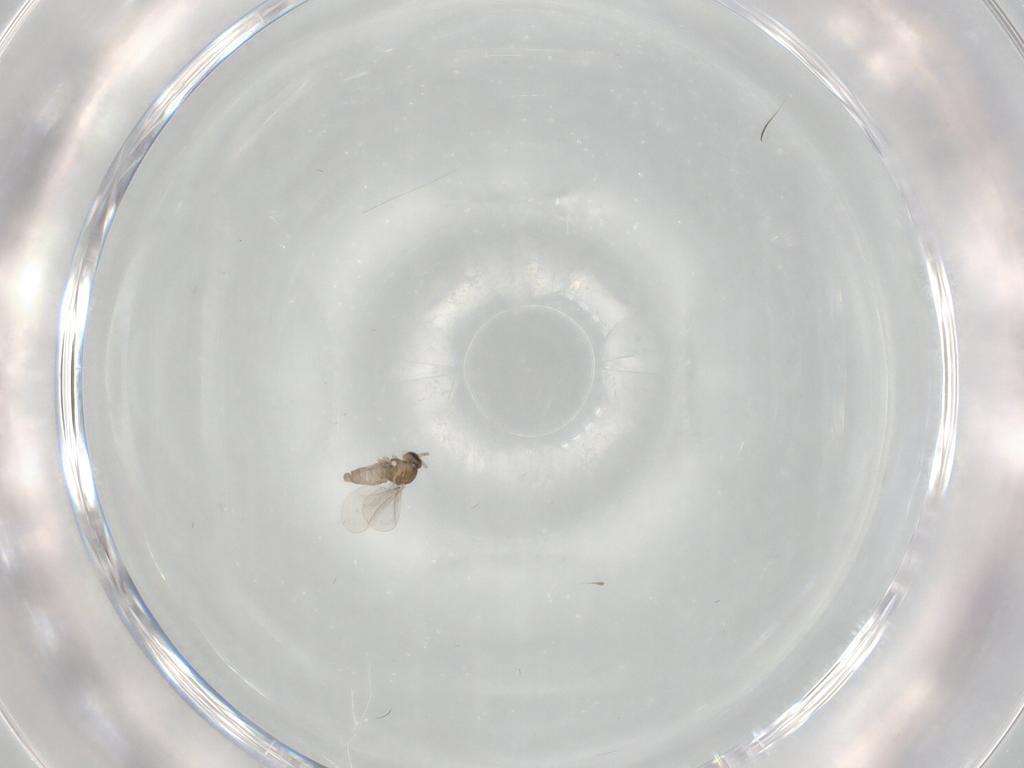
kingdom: Animalia
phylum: Arthropoda
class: Insecta
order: Diptera
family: Cecidomyiidae
